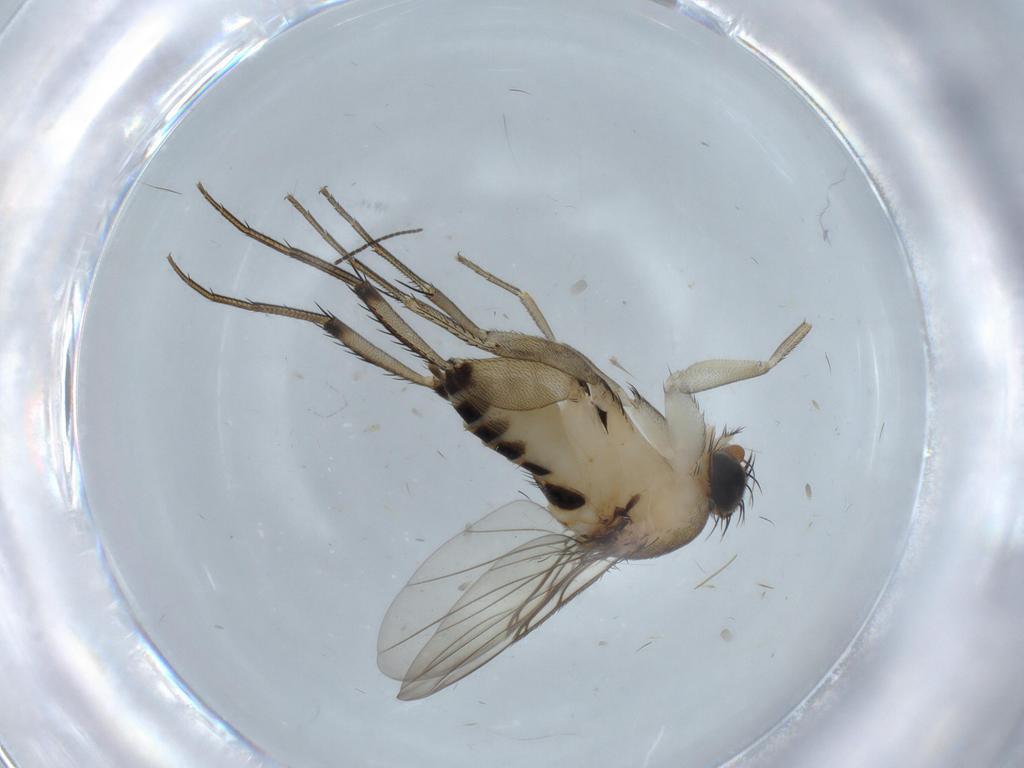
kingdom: Animalia
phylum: Arthropoda
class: Insecta
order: Diptera
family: Phoridae
